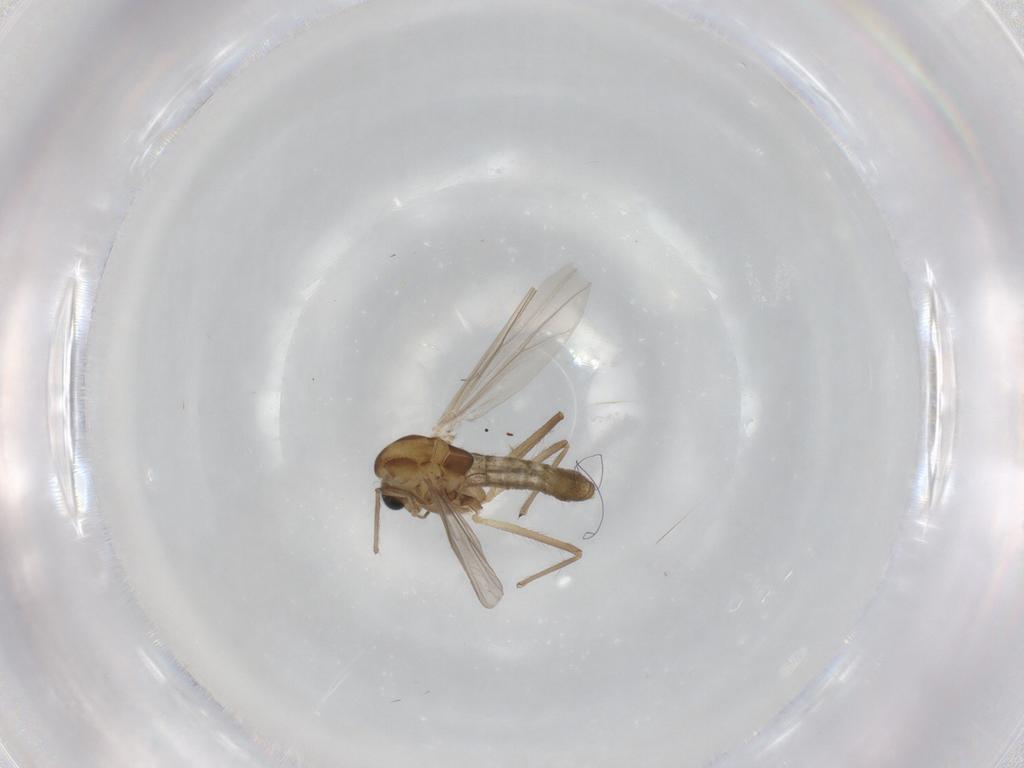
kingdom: Animalia
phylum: Arthropoda
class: Insecta
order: Diptera
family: Chironomidae
